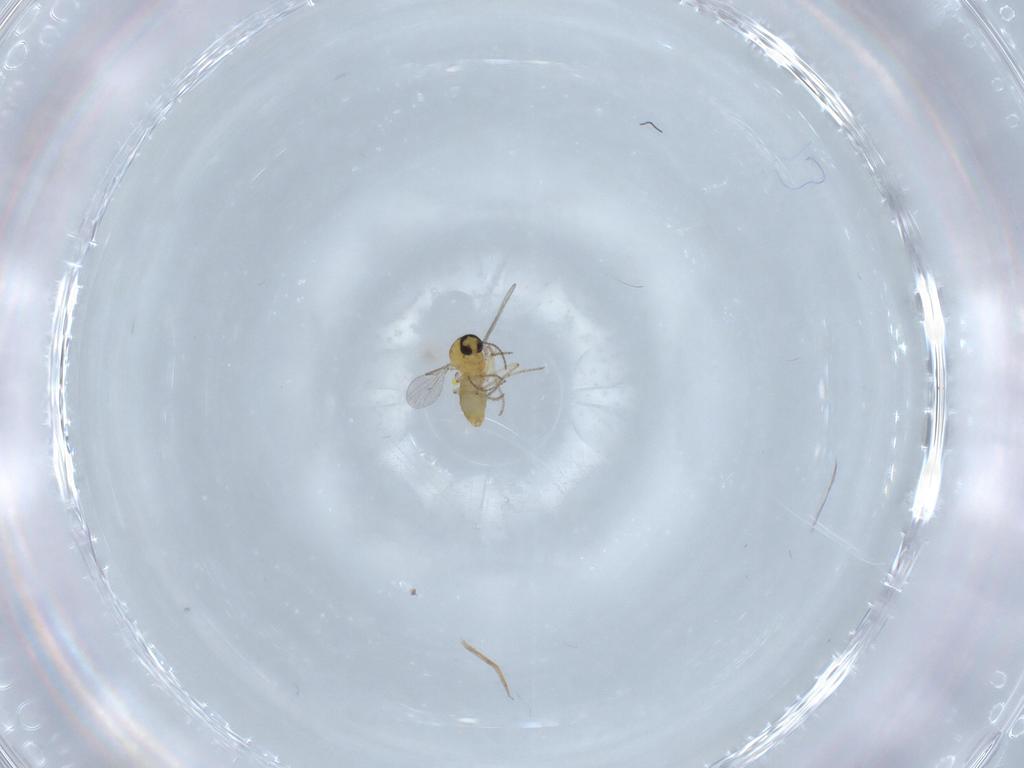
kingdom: Animalia
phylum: Arthropoda
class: Insecta
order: Diptera
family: Ceratopogonidae
